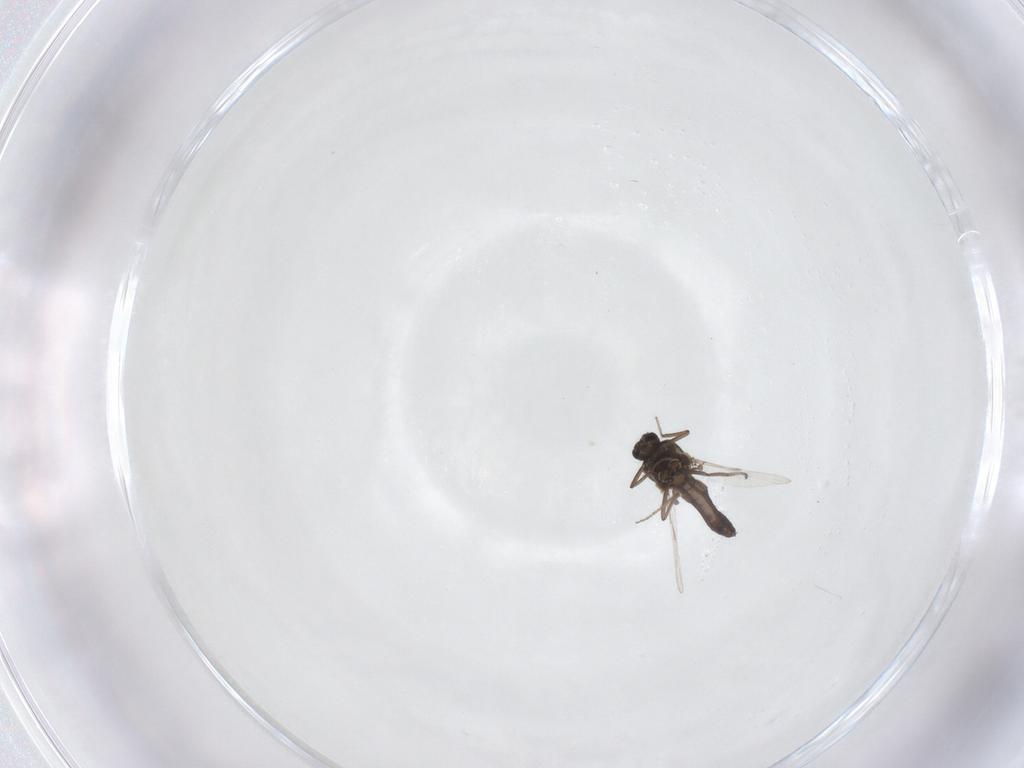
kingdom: Animalia
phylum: Arthropoda
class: Insecta
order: Diptera
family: Ceratopogonidae
